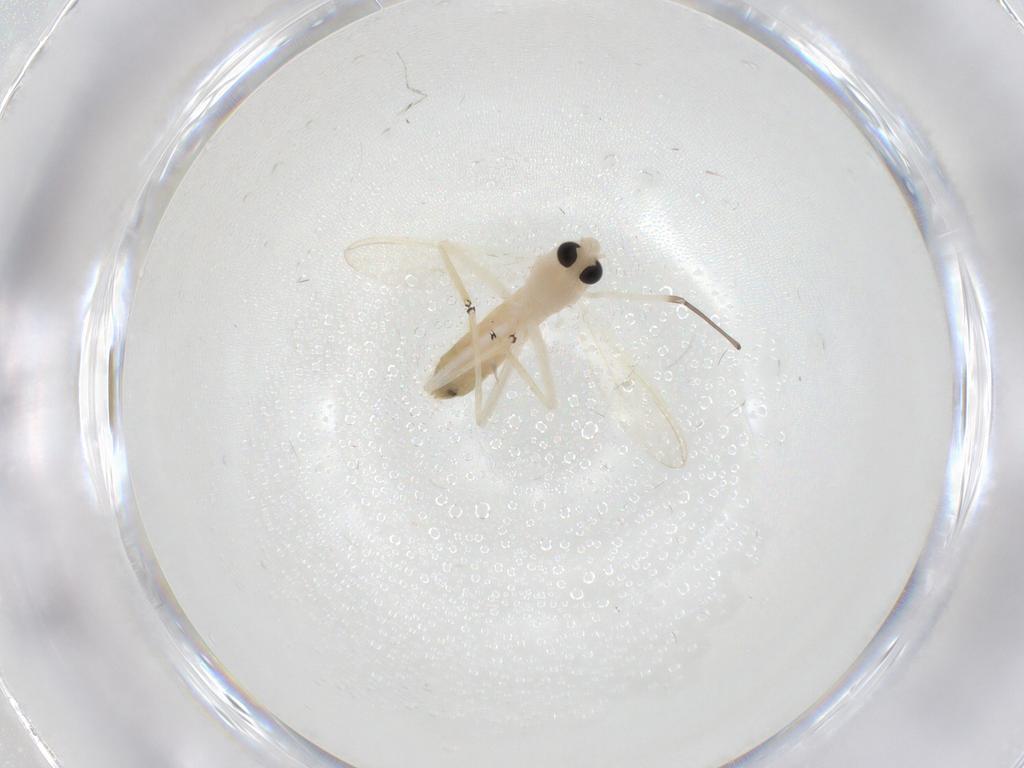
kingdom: Animalia
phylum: Arthropoda
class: Insecta
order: Diptera
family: Chironomidae
